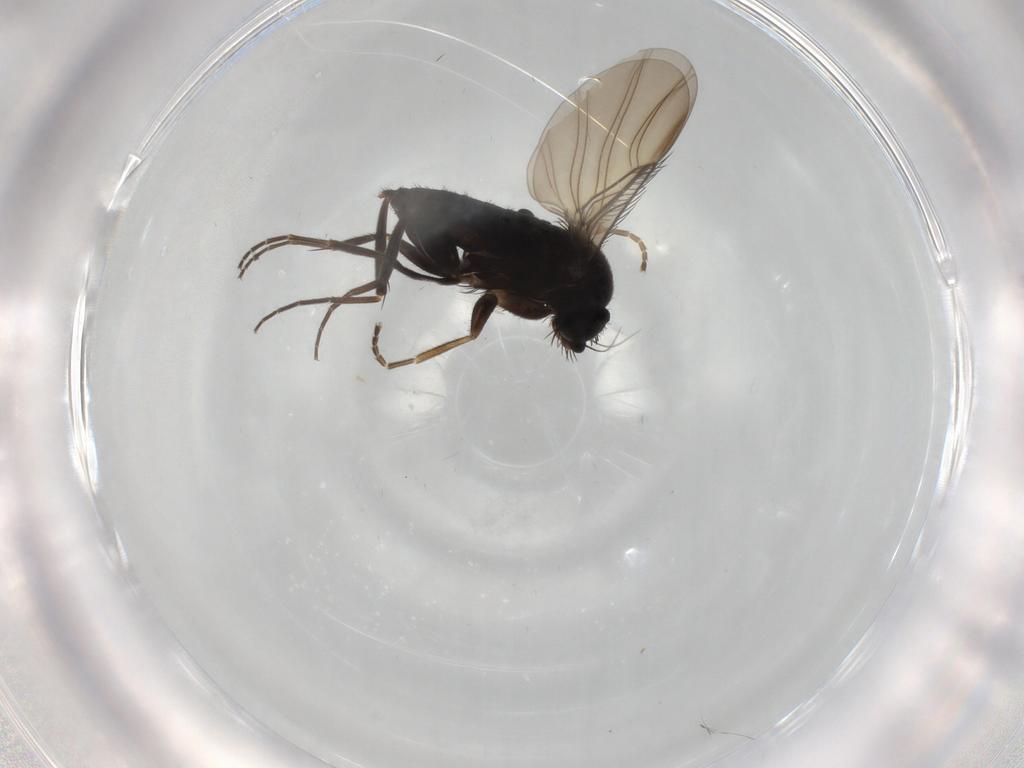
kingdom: Animalia
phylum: Arthropoda
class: Insecta
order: Diptera
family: Phoridae
